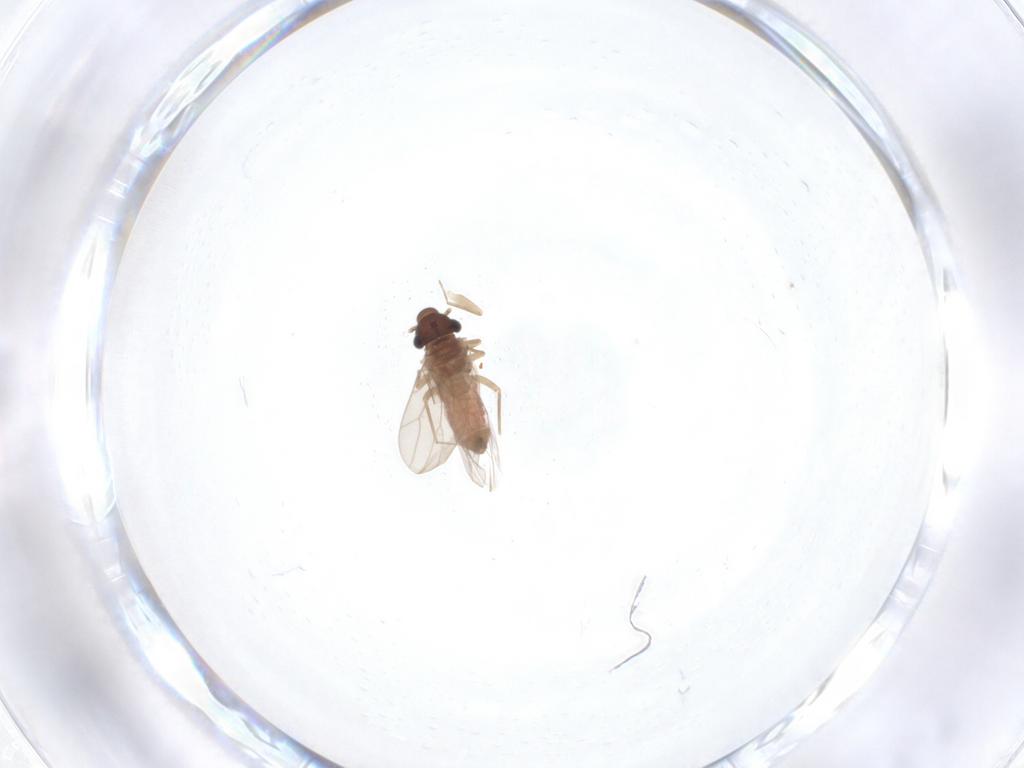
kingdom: Animalia
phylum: Arthropoda
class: Insecta
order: Psocodea
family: Lepidopsocidae
